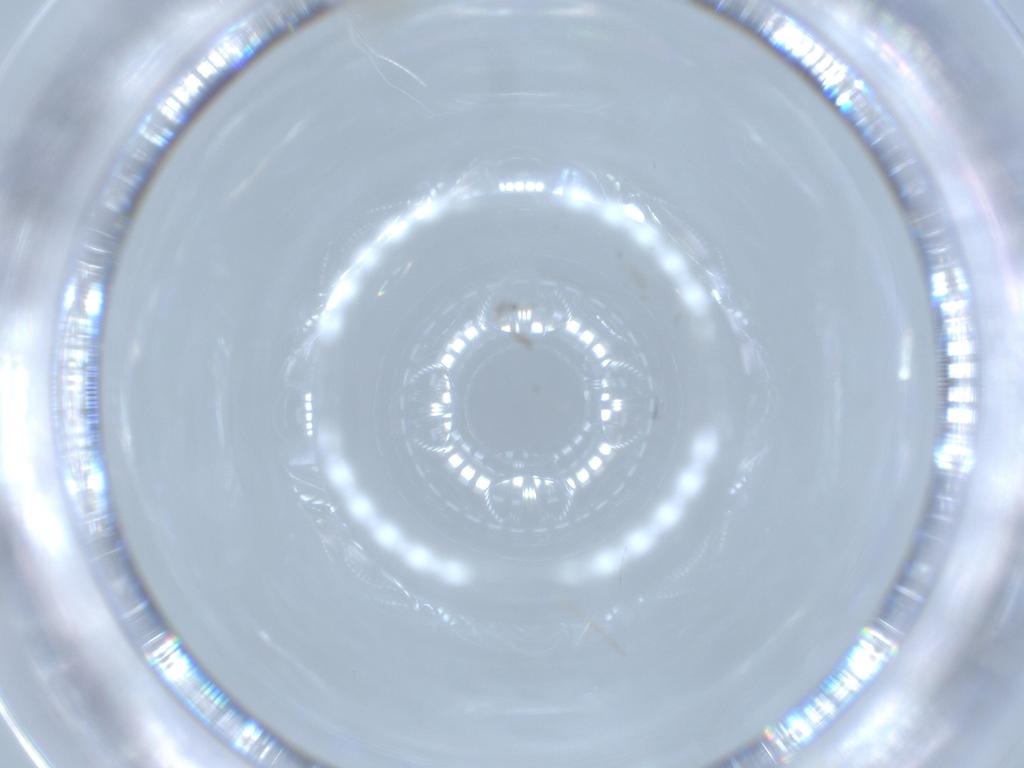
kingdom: Animalia
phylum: Arthropoda
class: Insecta
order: Neuroptera
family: Coniopterygidae
